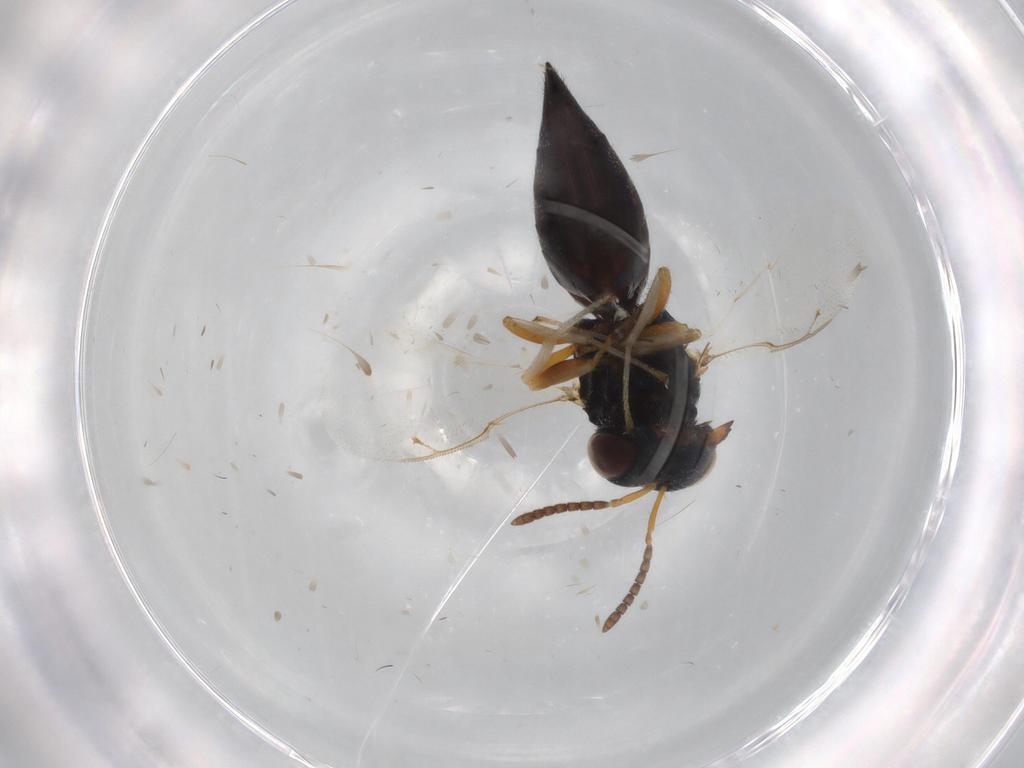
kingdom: Animalia
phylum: Arthropoda
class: Insecta
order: Hymenoptera
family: Pteromalidae
